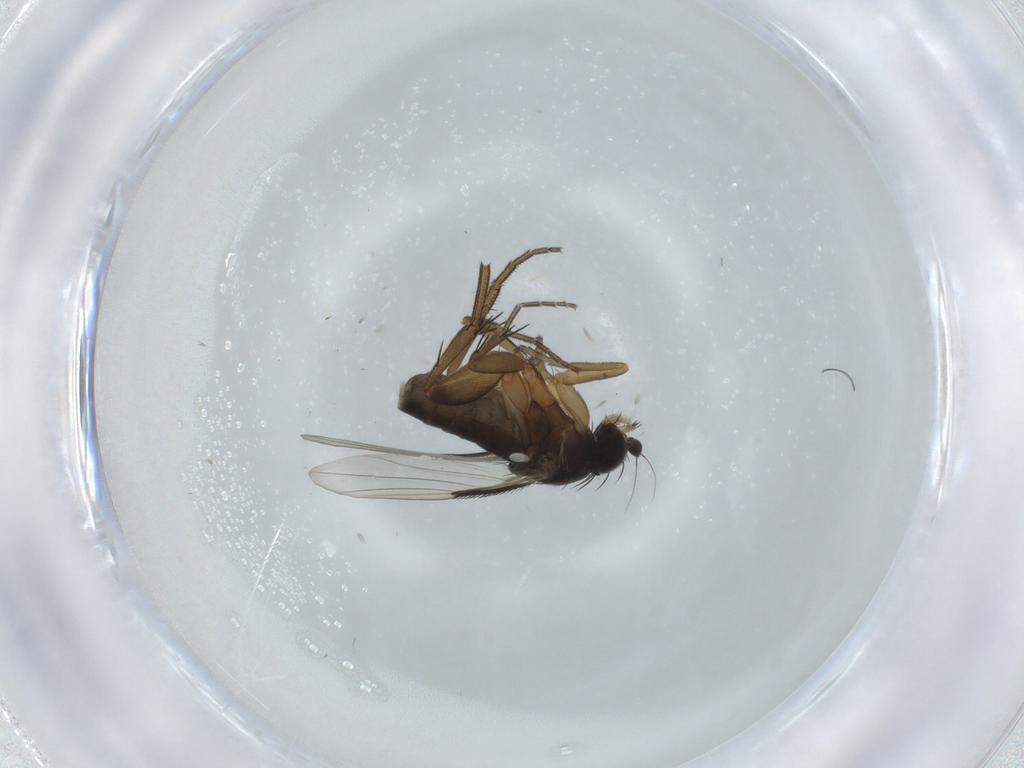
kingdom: Animalia
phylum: Arthropoda
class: Insecta
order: Diptera
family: Phoridae
